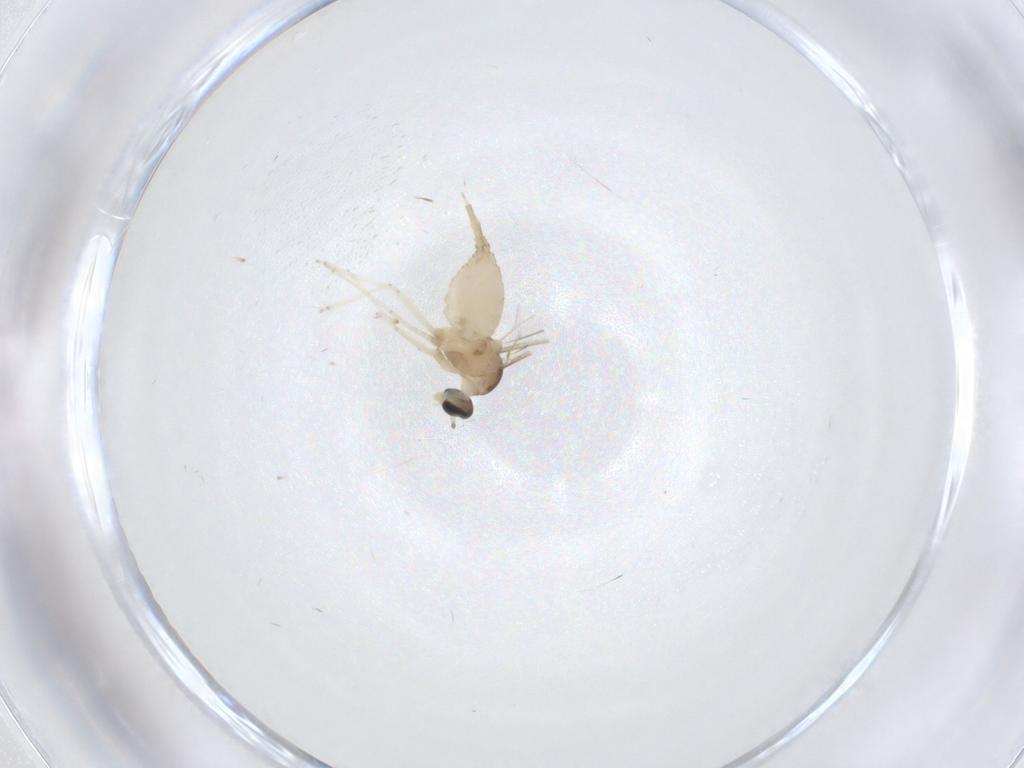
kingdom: Animalia
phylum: Arthropoda
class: Insecta
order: Diptera
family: Cecidomyiidae
